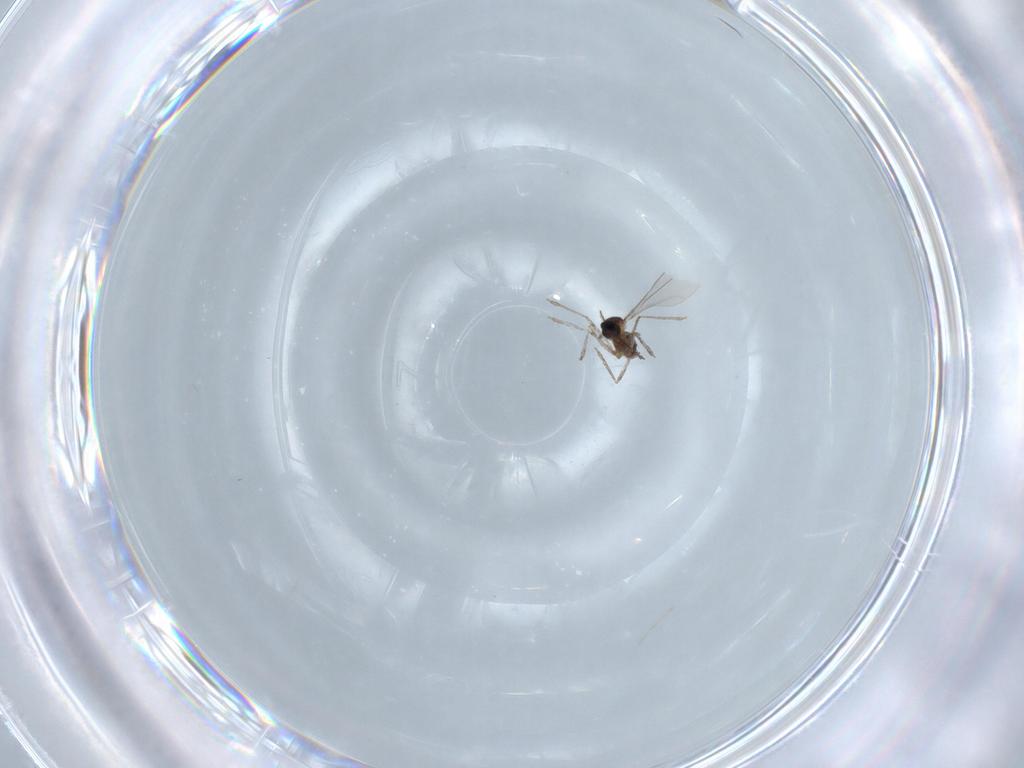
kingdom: Animalia
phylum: Arthropoda
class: Insecta
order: Diptera
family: Cecidomyiidae
